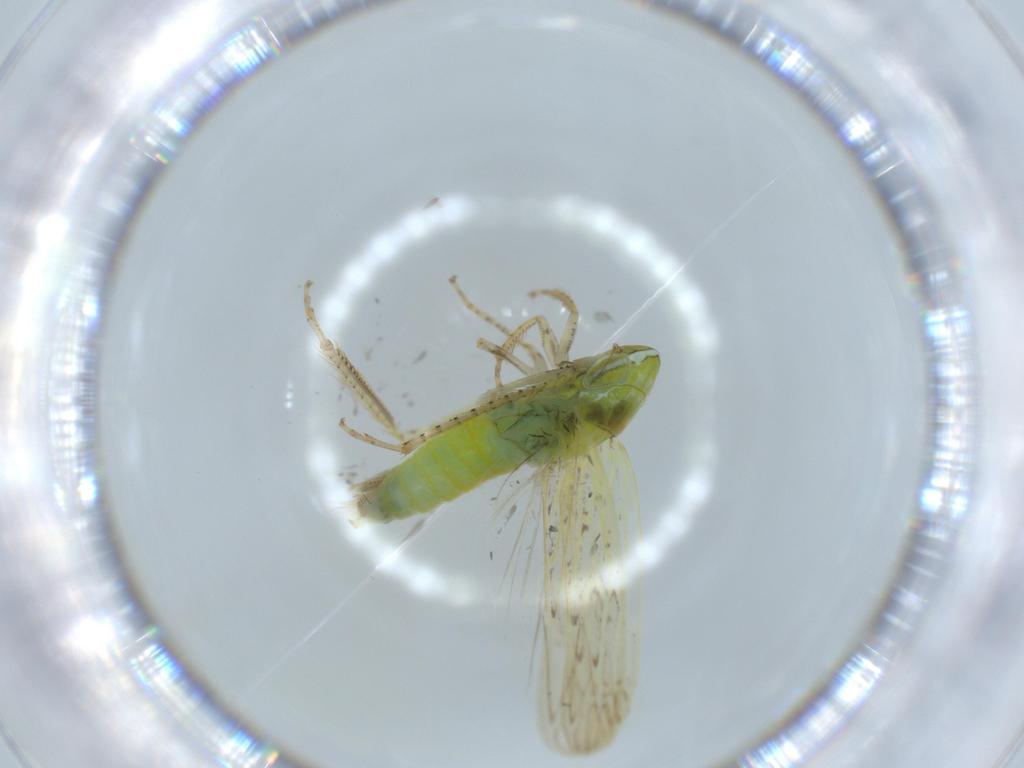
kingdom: Animalia
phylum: Arthropoda
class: Insecta
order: Hemiptera
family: Cicadellidae
